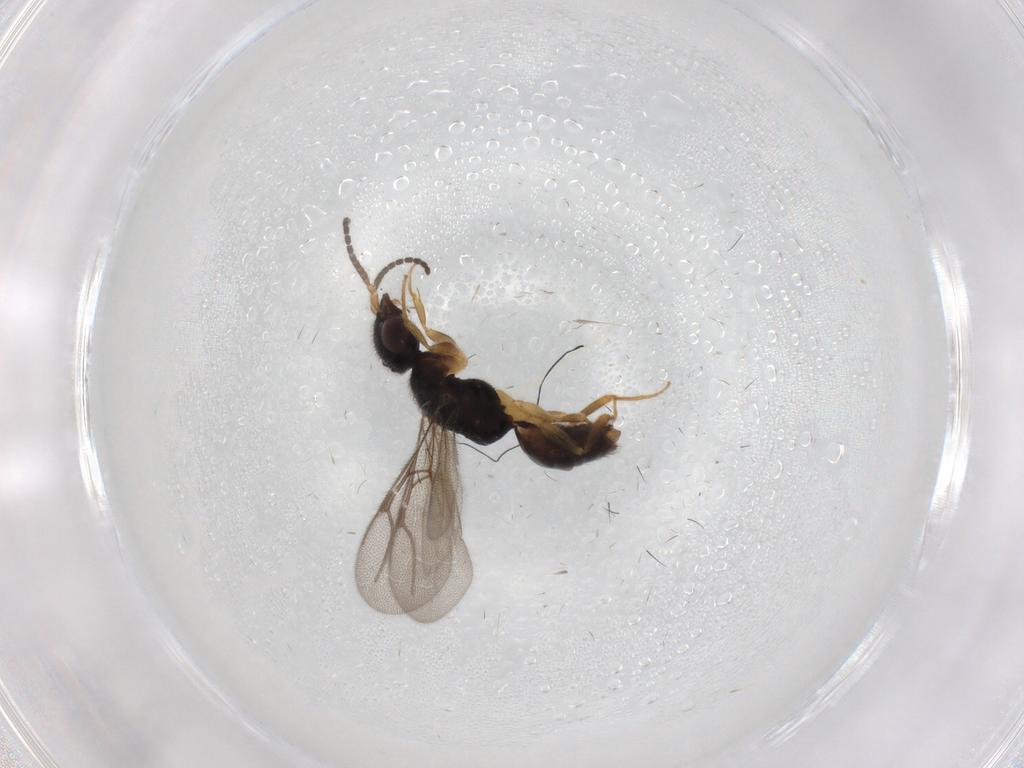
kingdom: Animalia
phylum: Arthropoda
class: Insecta
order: Hymenoptera
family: Bethylidae
